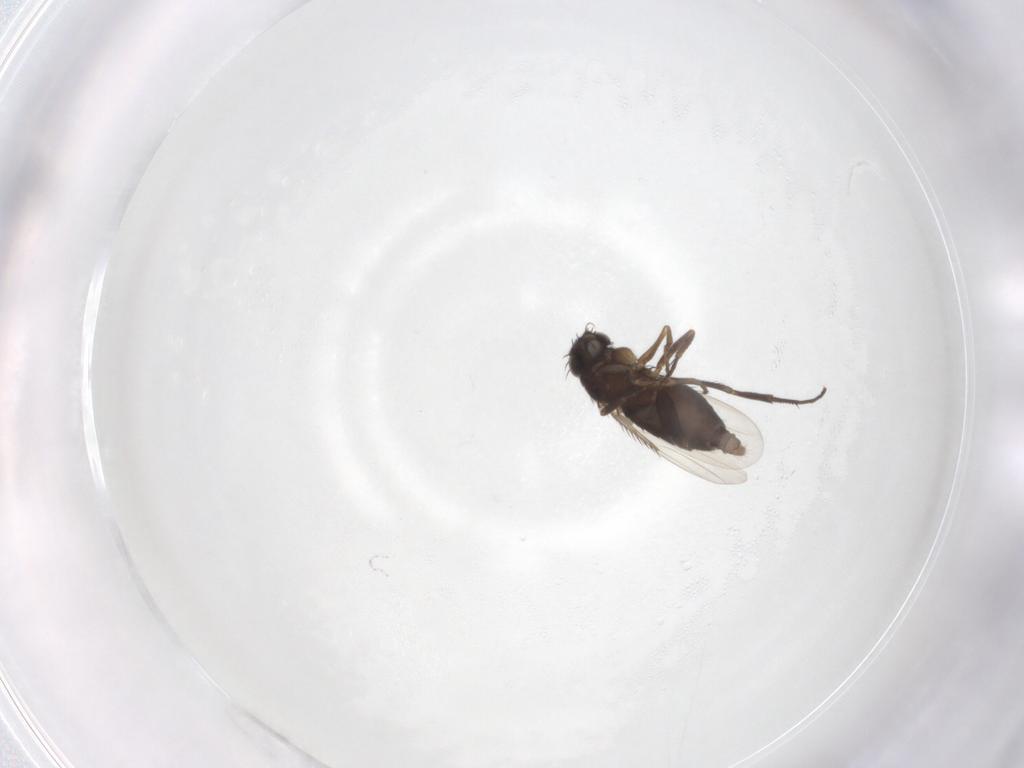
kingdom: Animalia
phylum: Arthropoda
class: Insecta
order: Diptera
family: Phoridae
